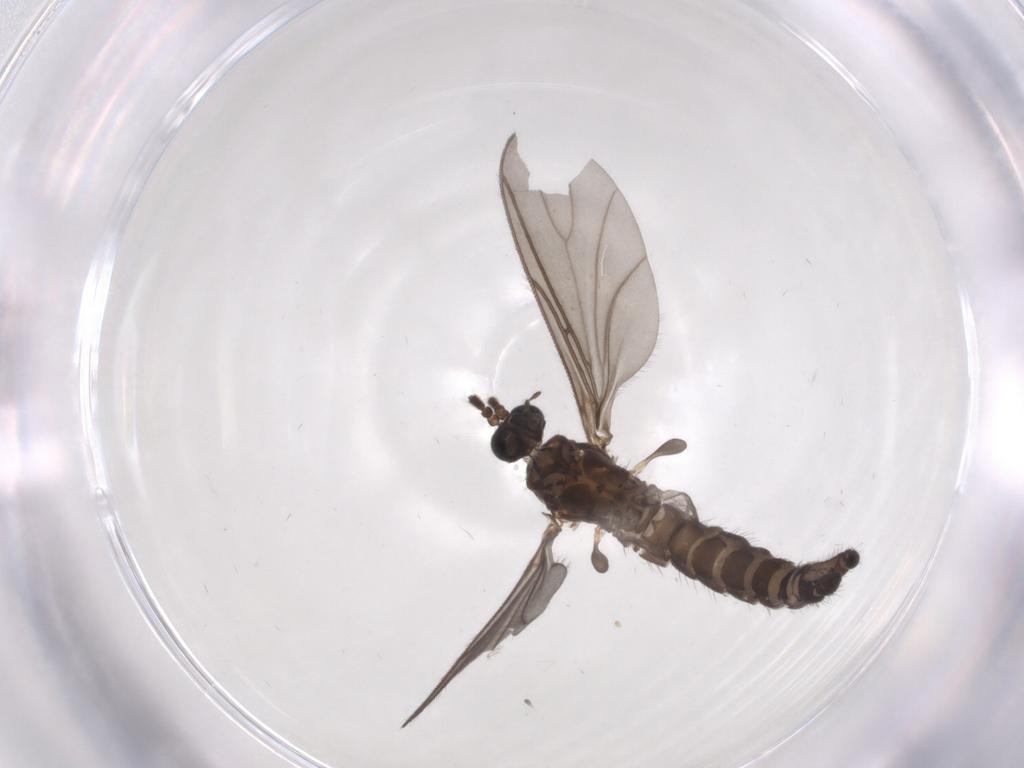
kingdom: Animalia
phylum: Arthropoda
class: Insecta
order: Diptera
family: Sciaridae
